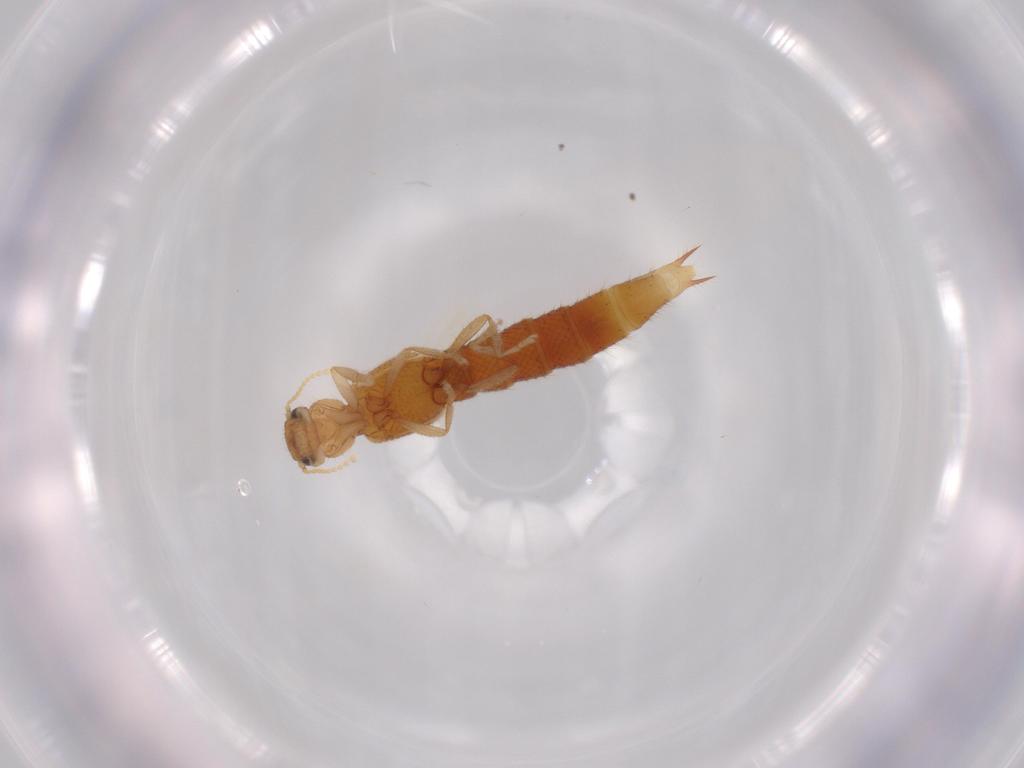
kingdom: Animalia
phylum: Arthropoda
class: Insecta
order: Coleoptera
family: Staphylinidae
